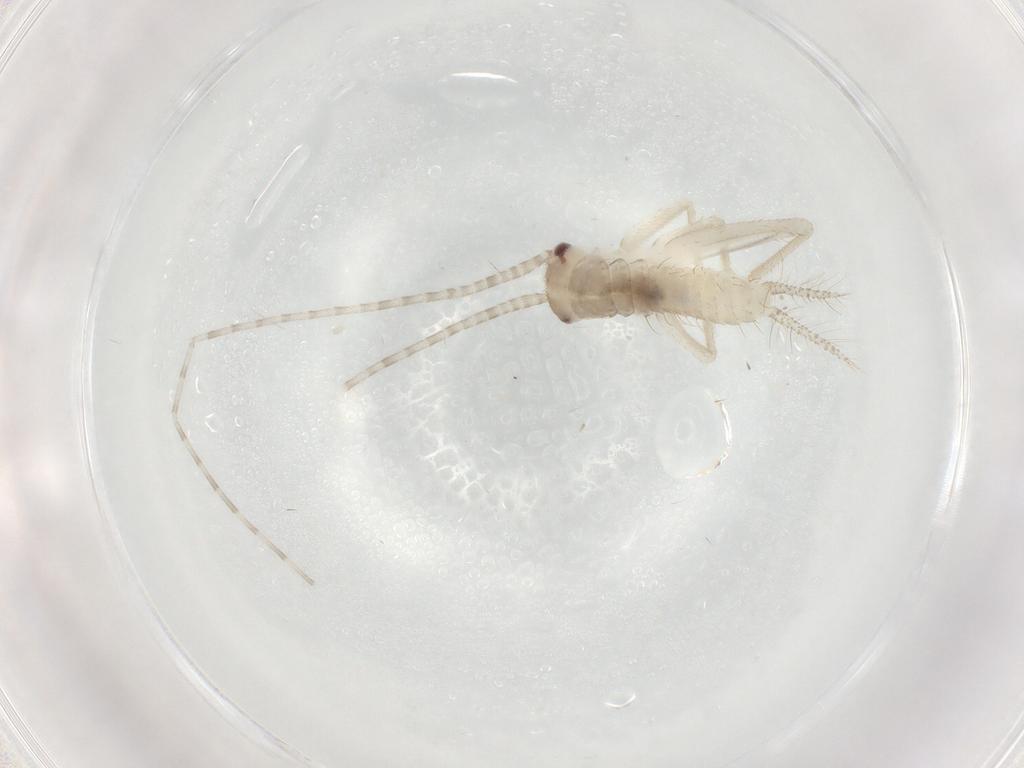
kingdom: Animalia
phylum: Arthropoda
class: Insecta
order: Orthoptera
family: Gryllidae
